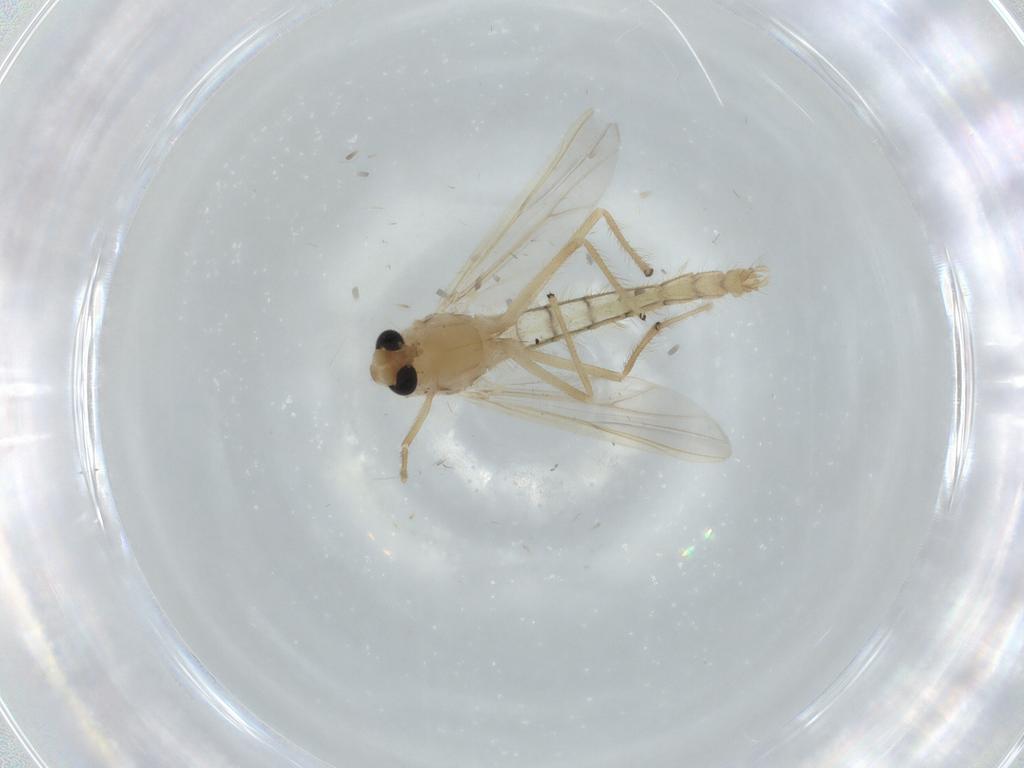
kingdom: Animalia
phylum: Arthropoda
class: Insecta
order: Diptera
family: Chironomidae
